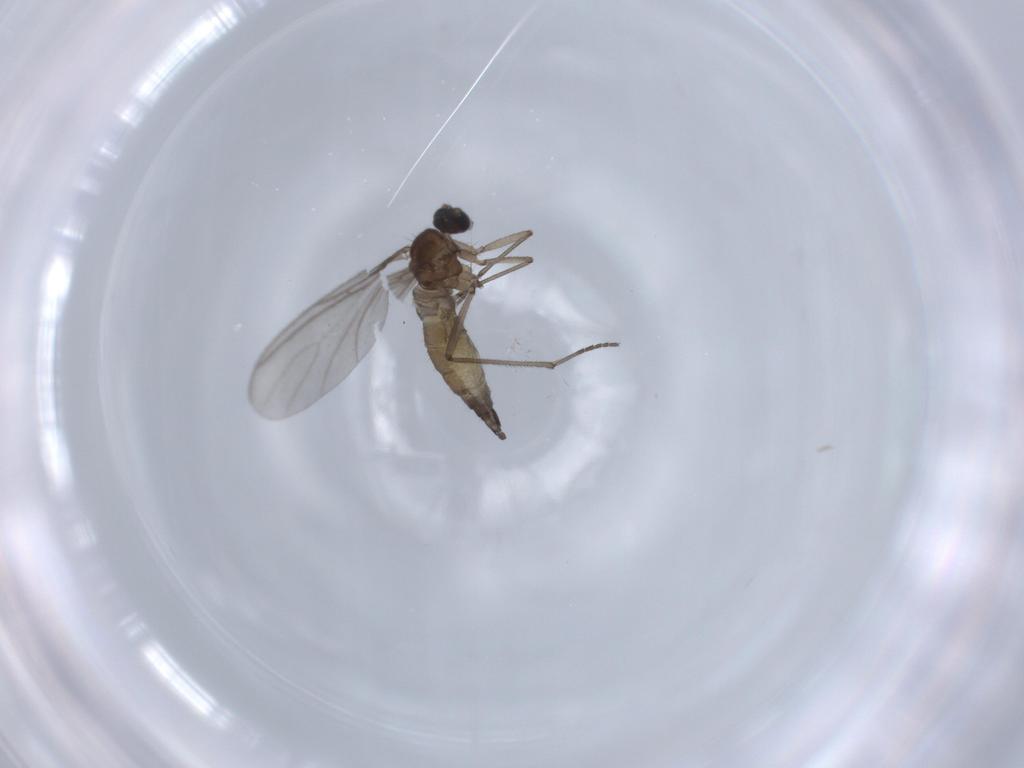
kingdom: Animalia
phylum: Arthropoda
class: Insecta
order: Diptera
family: Sciaridae
